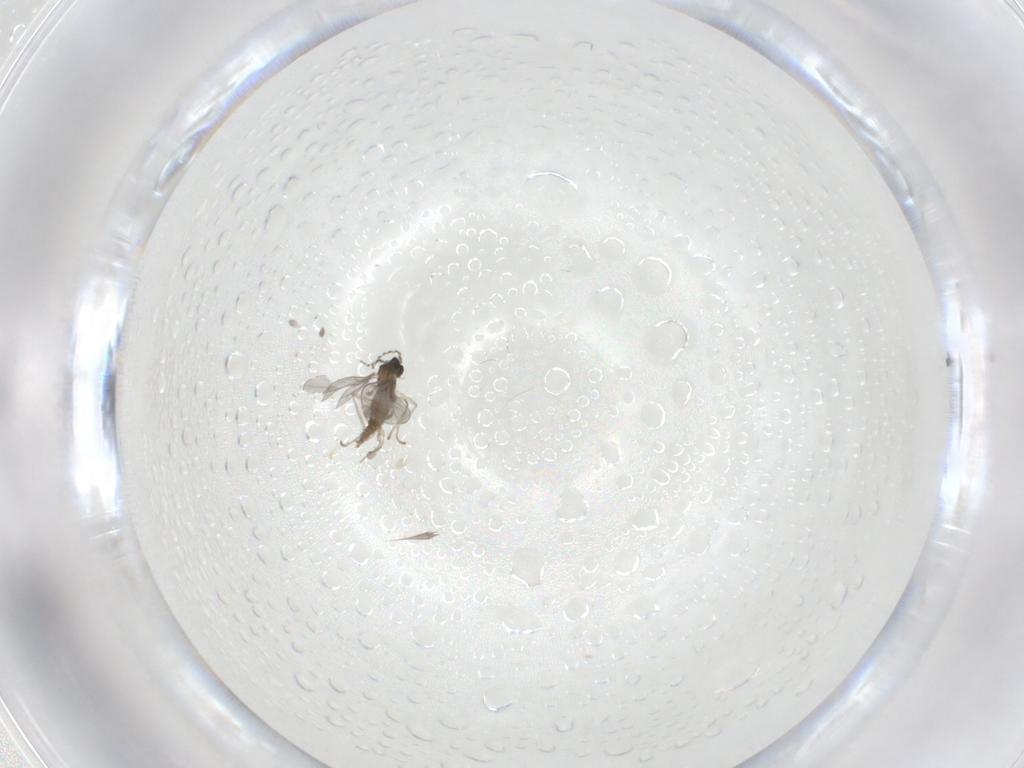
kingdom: Animalia
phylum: Arthropoda
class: Insecta
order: Diptera
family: Cecidomyiidae
